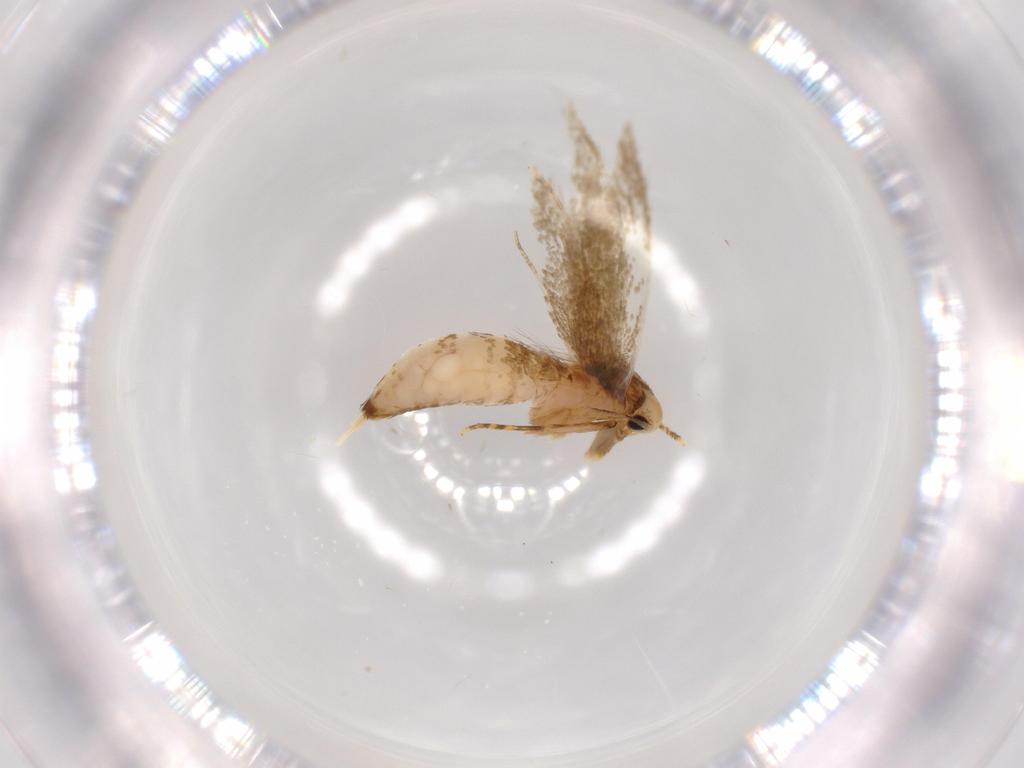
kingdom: Animalia
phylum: Arthropoda
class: Insecta
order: Lepidoptera
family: Tineidae
